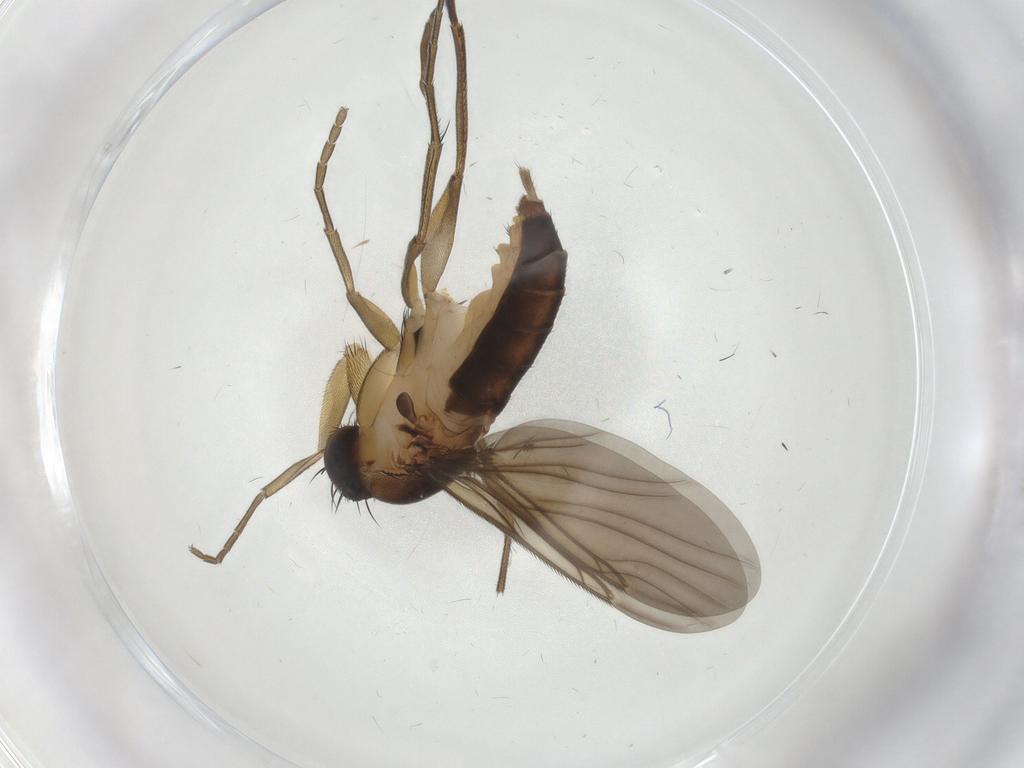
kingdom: Animalia
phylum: Arthropoda
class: Insecta
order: Diptera
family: Phoridae
